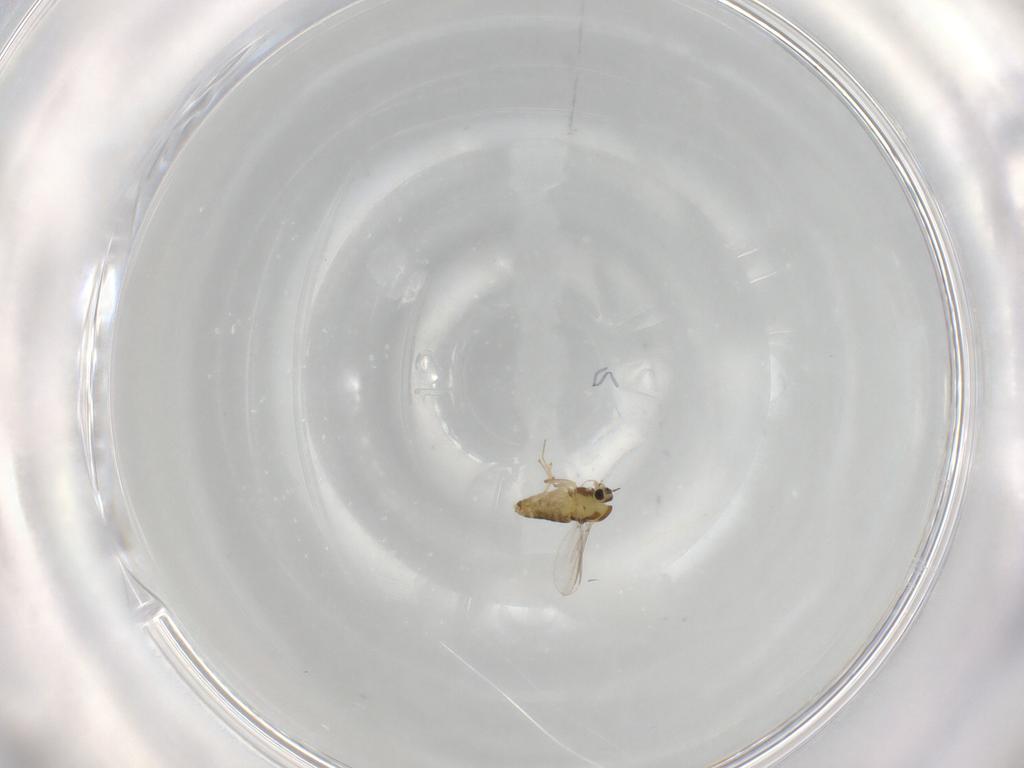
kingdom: Animalia
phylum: Arthropoda
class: Insecta
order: Diptera
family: Chironomidae
